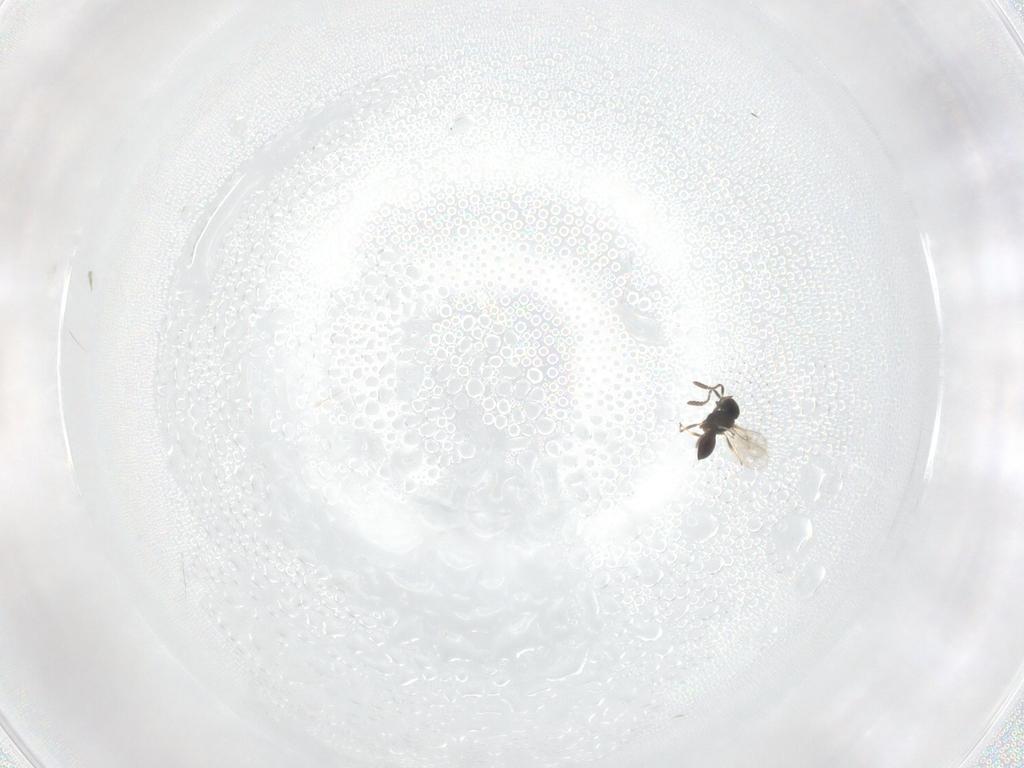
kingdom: Animalia
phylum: Arthropoda
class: Insecta
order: Hymenoptera
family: Scelionidae
